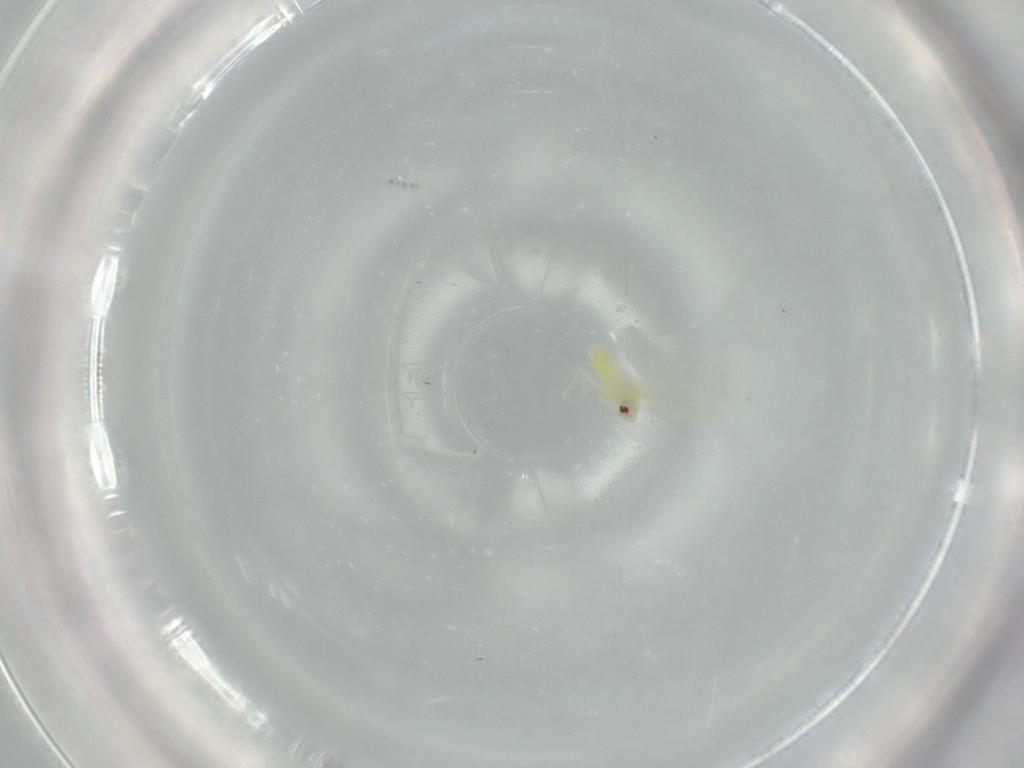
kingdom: Animalia
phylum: Arthropoda
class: Insecta
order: Hemiptera
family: Aleyrodidae
